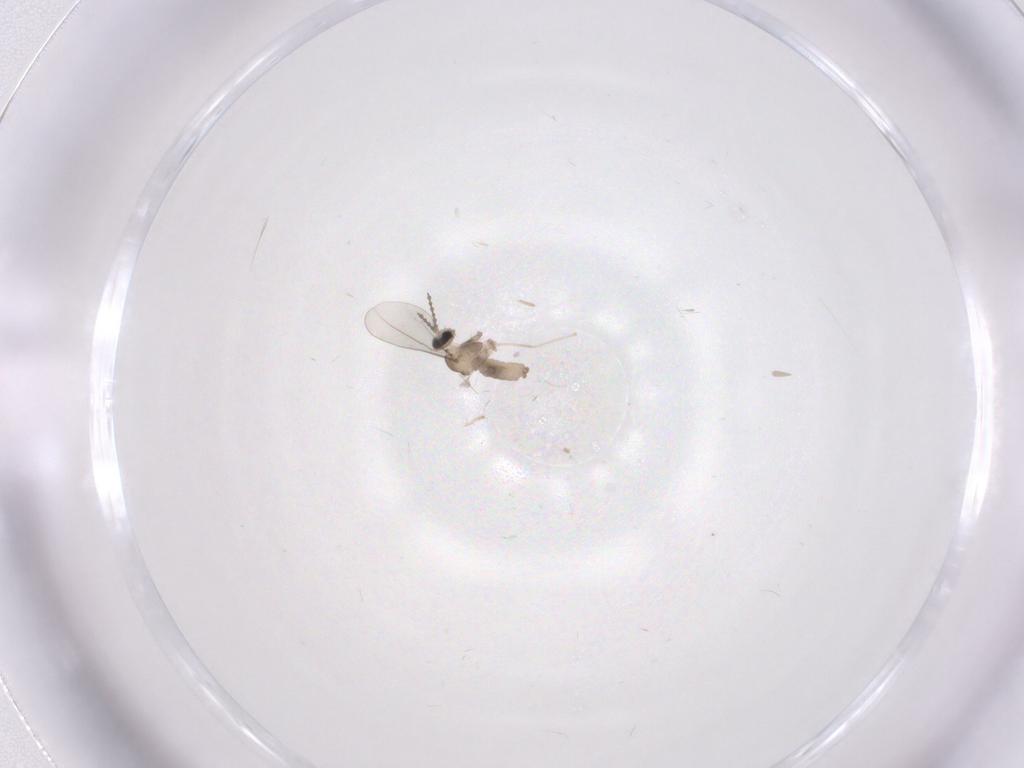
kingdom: Animalia
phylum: Arthropoda
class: Insecta
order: Diptera
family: Cecidomyiidae
